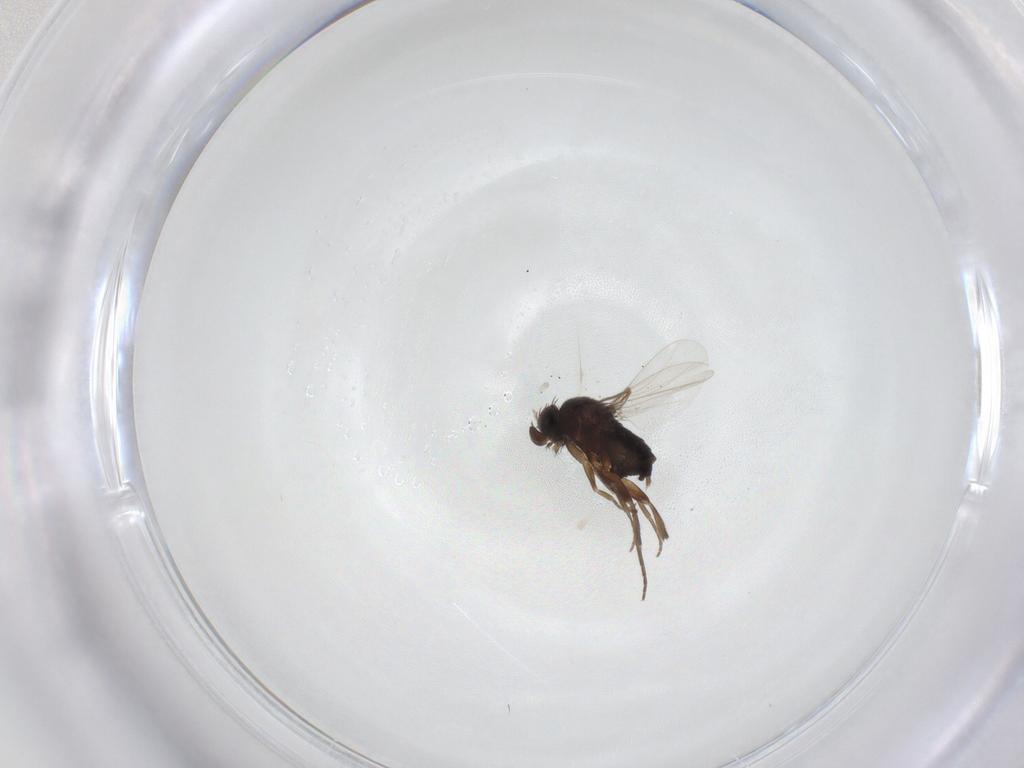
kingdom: Animalia
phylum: Arthropoda
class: Insecta
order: Diptera
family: Phoridae
